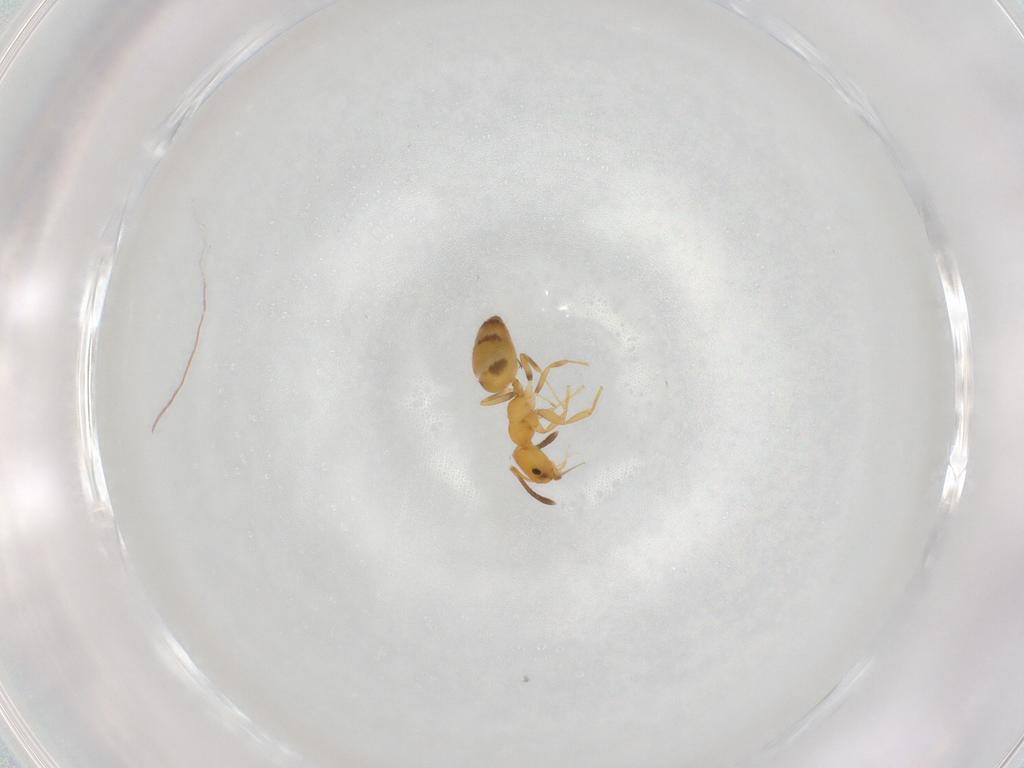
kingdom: Animalia
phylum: Arthropoda
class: Insecta
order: Hymenoptera
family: Formicidae
